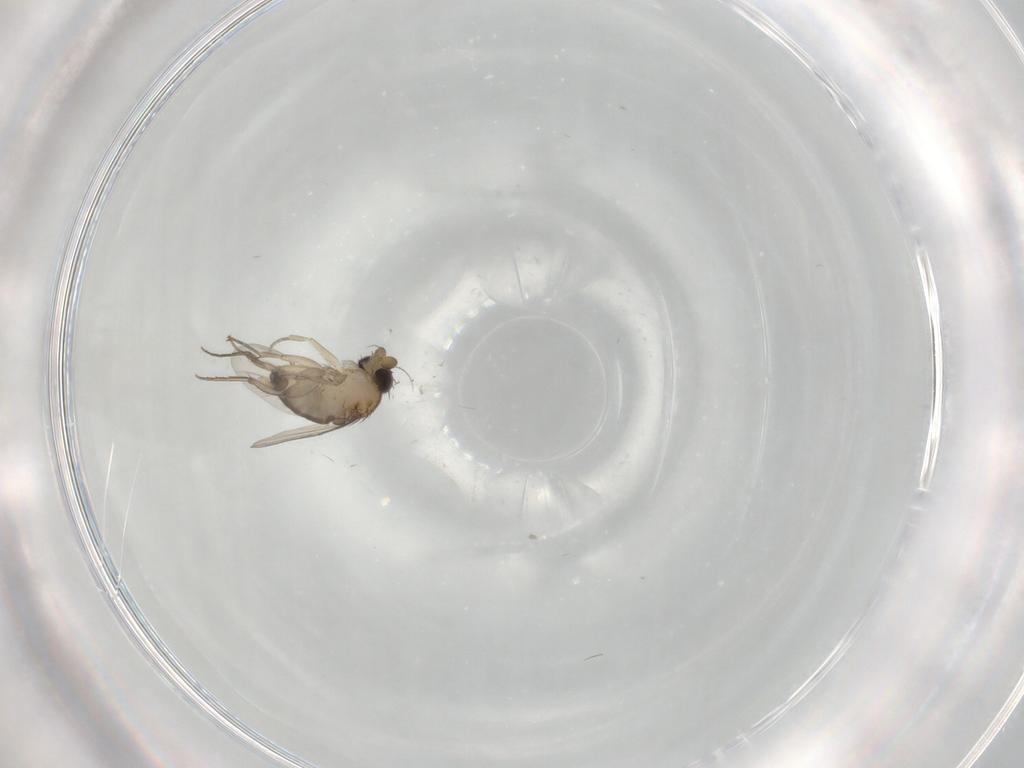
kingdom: Animalia
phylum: Arthropoda
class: Insecta
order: Diptera
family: Phoridae
